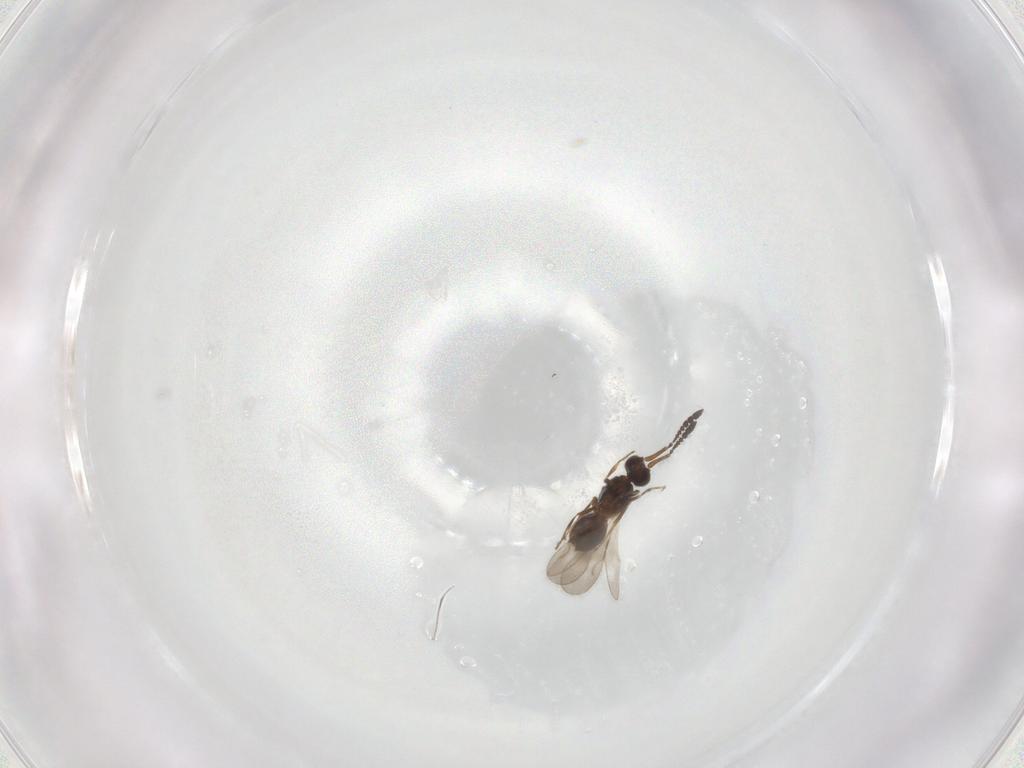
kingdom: Animalia
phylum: Arthropoda
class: Insecta
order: Hymenoptera
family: Ceraphronidae
